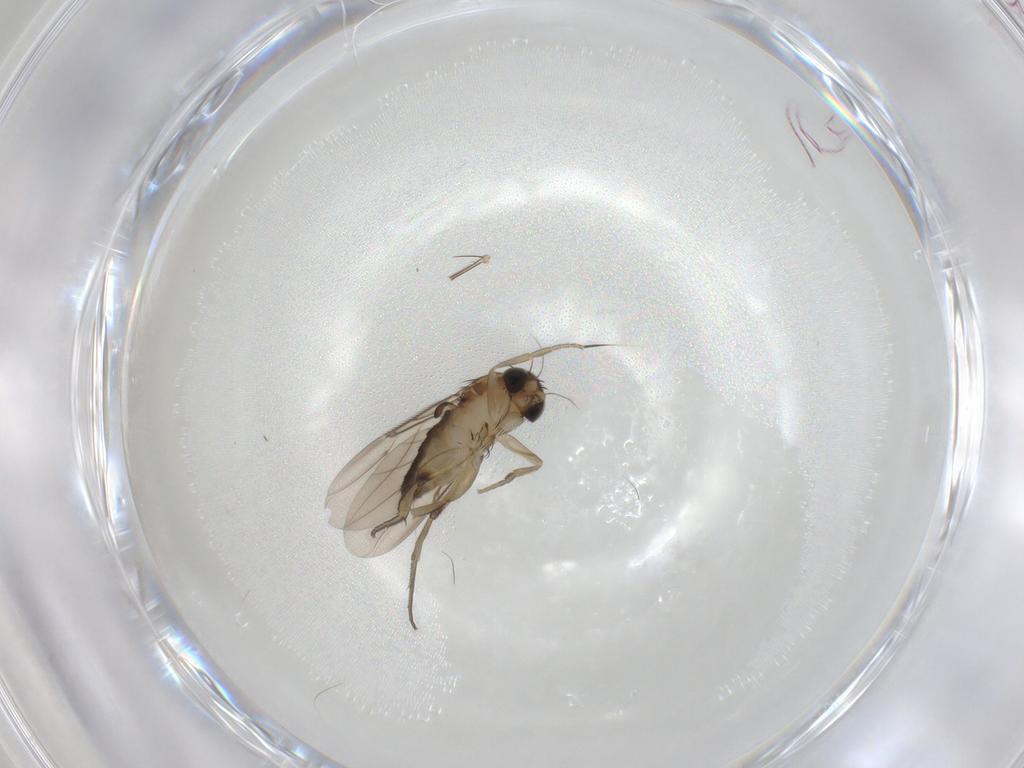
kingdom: Animalia
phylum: Arthropoda
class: Insecta
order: Diptera
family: Phoridae
